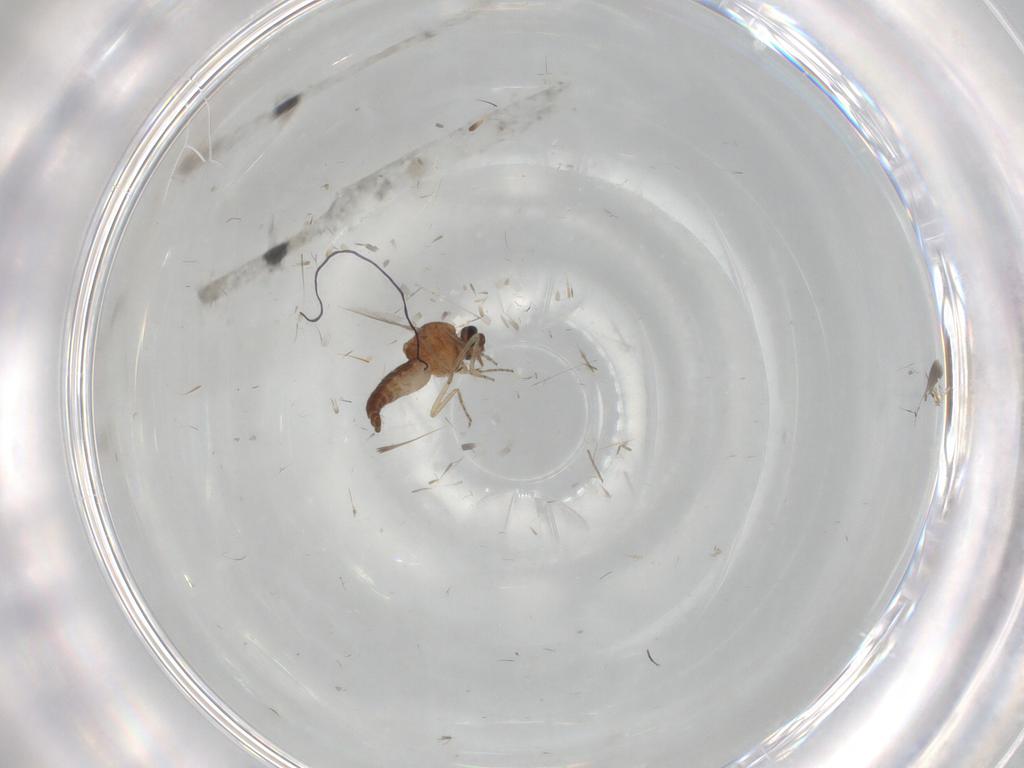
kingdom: Animalia
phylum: Arthropoda
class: Insecta
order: Diptera
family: Ceratopogonidae
